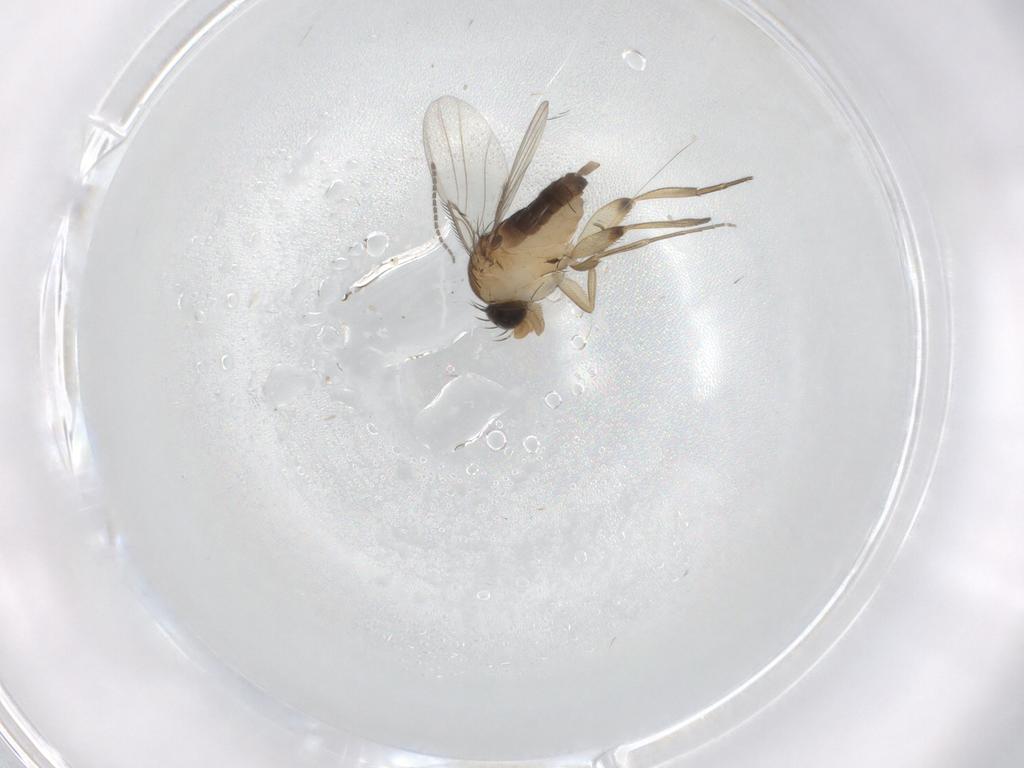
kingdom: Animalia
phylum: Arthropoda
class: Insecta
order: Diptera
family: Phoridae
